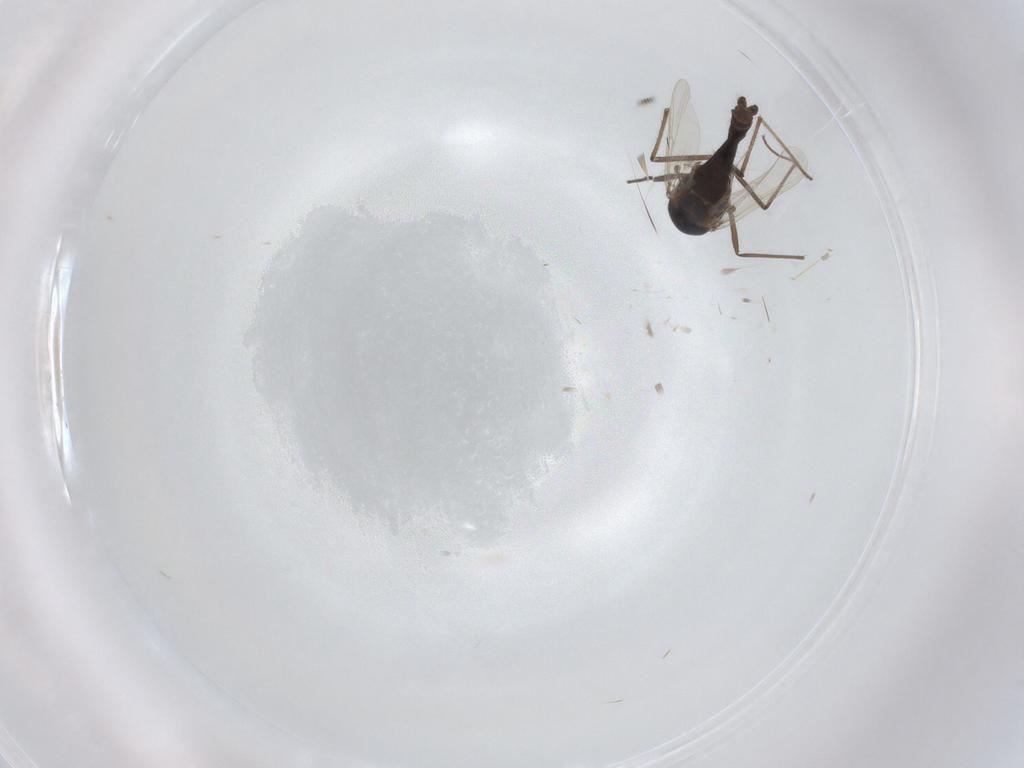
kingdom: Animalia
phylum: Arthropoda
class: Insecta
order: Diptera
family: Chironomidae
